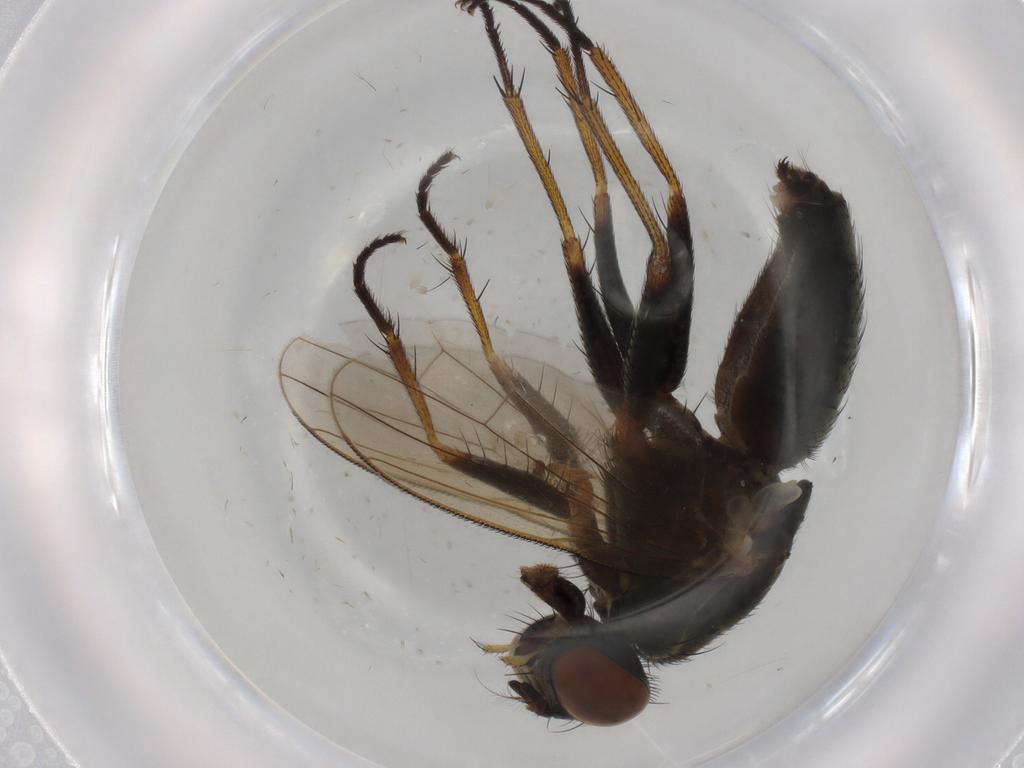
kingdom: Animalia
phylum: Arthropoda
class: Insecta
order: Diptera
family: Muscidae
